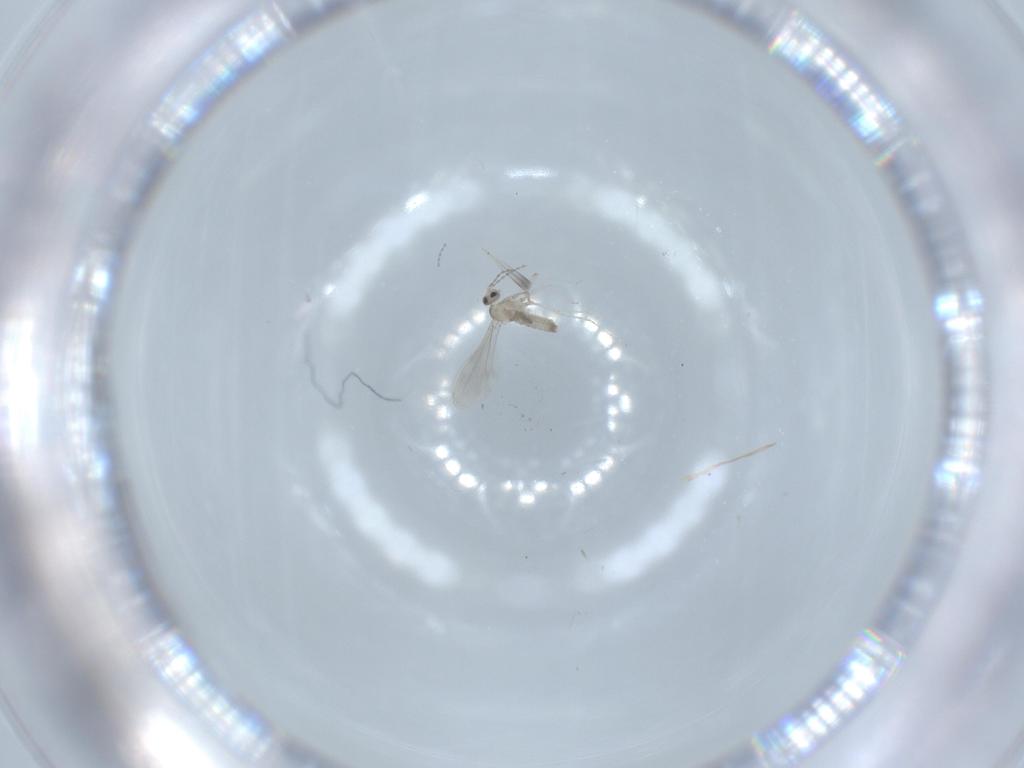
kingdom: Animalia
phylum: Arthropoda
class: Insecta
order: Diptera
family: Cecidomyiidae
